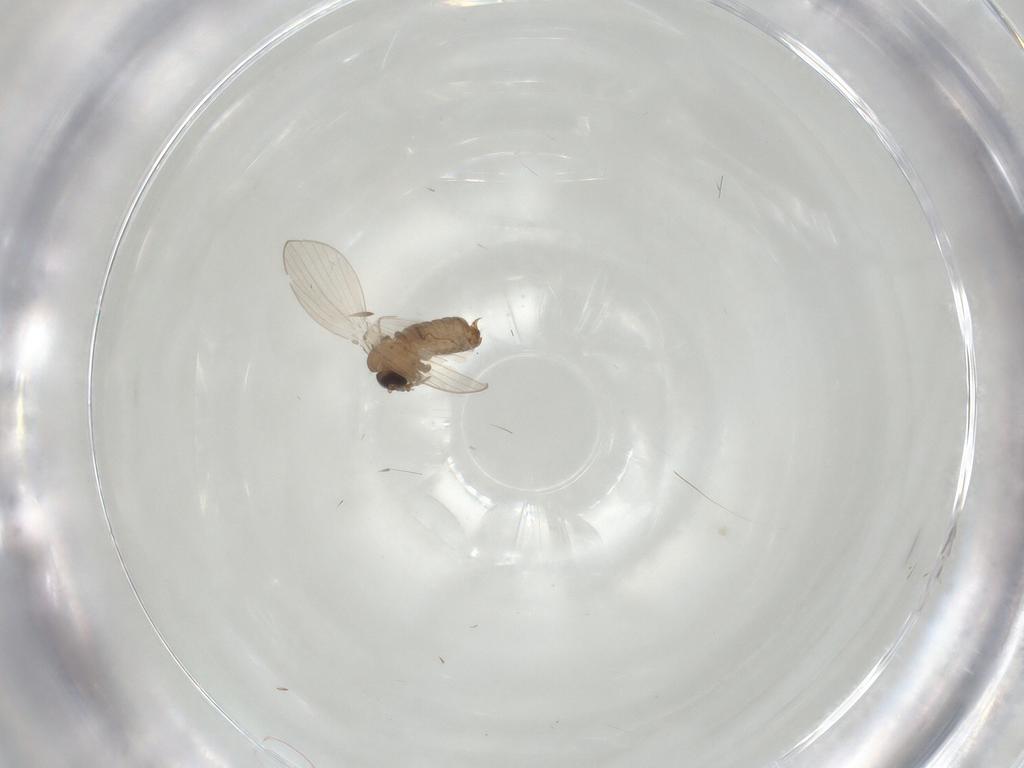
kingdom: Animalia
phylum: Arthropoda
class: Insecta
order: Diptera
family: Psychodidae
